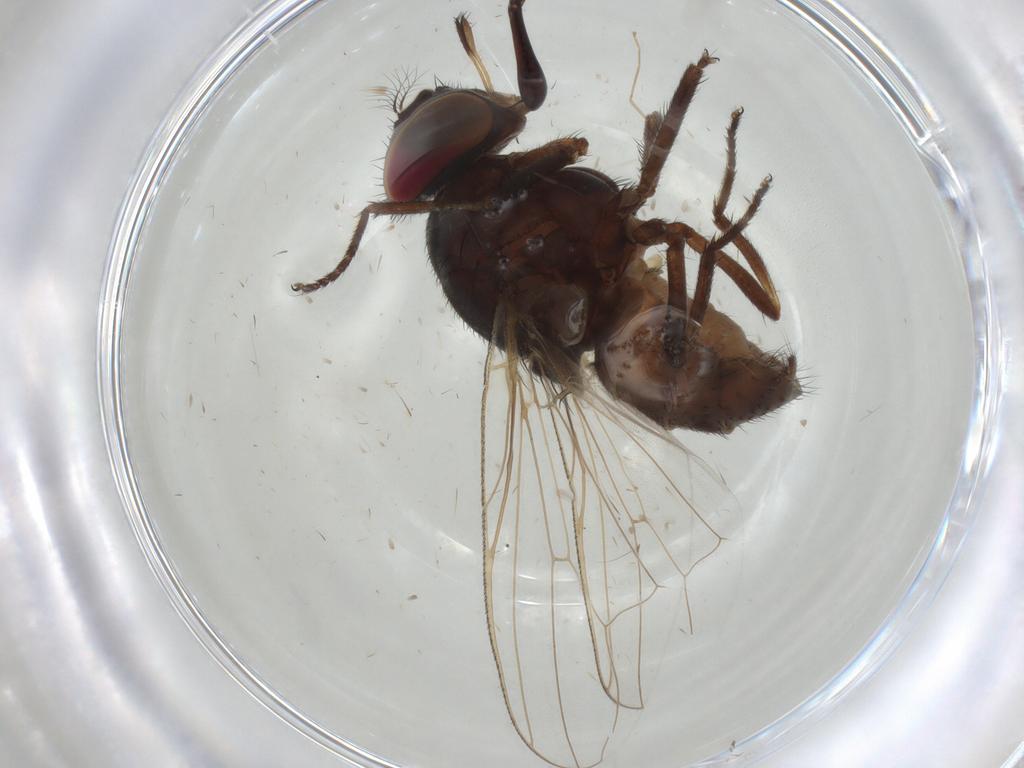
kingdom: Animalia
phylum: Arthropoda
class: Insecta
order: Diptera
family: Muscidae
